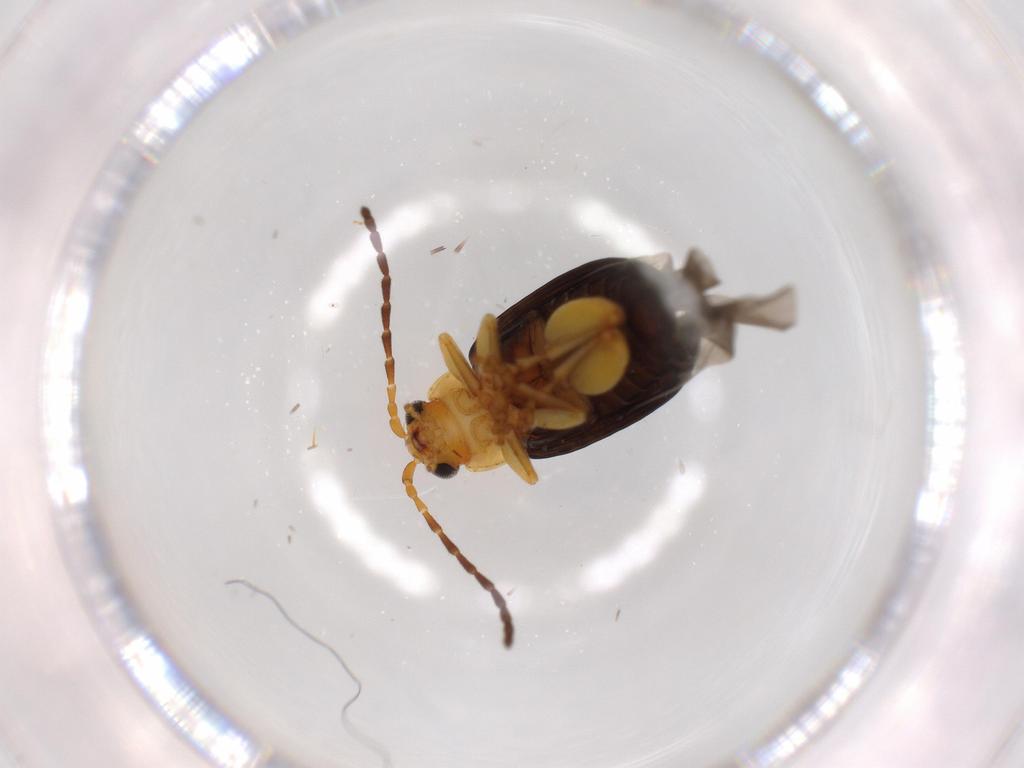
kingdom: Animalia
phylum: Arthropoda
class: Insecta
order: Coleoptera
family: Chrysomelidae
